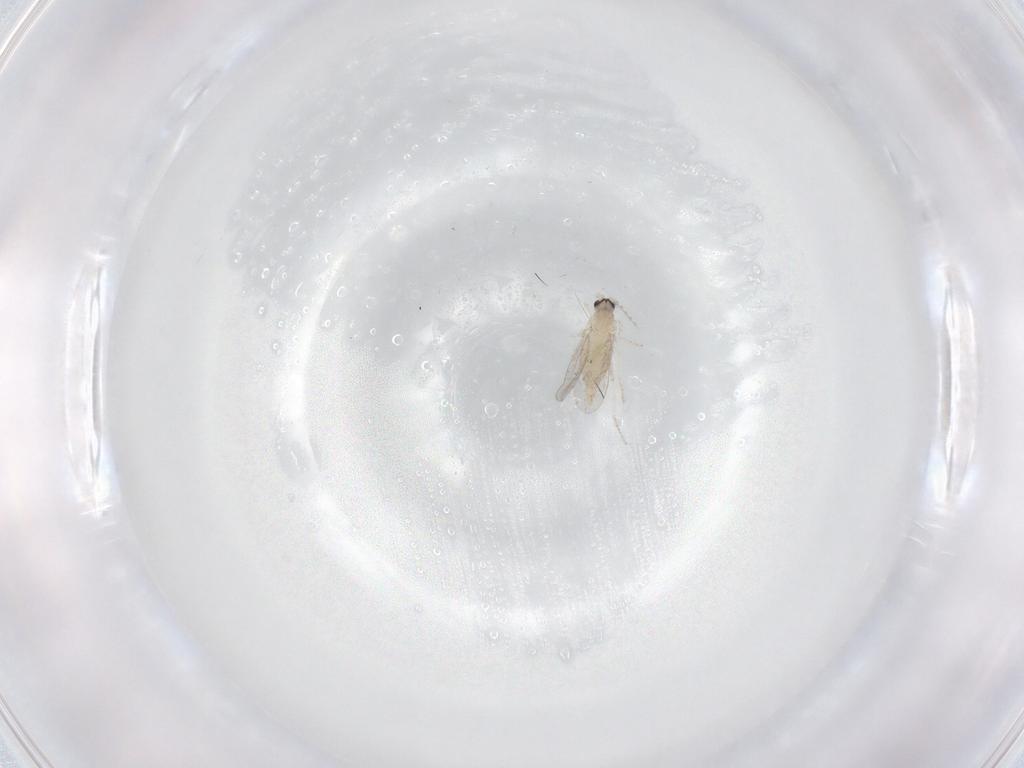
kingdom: Animalia
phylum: Arthropoda
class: Insecta
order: Diptera
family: Cecidomyiidae
